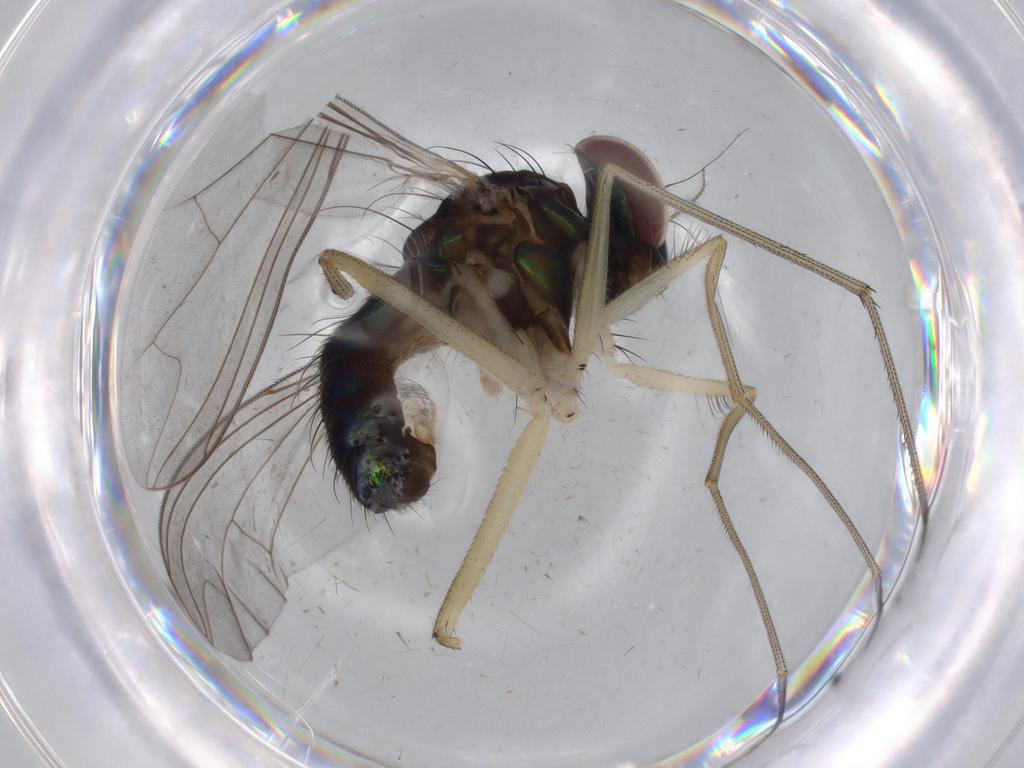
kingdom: Animalia
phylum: Arthropoda
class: Insecta
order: Diptera
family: Dolichopodidae
